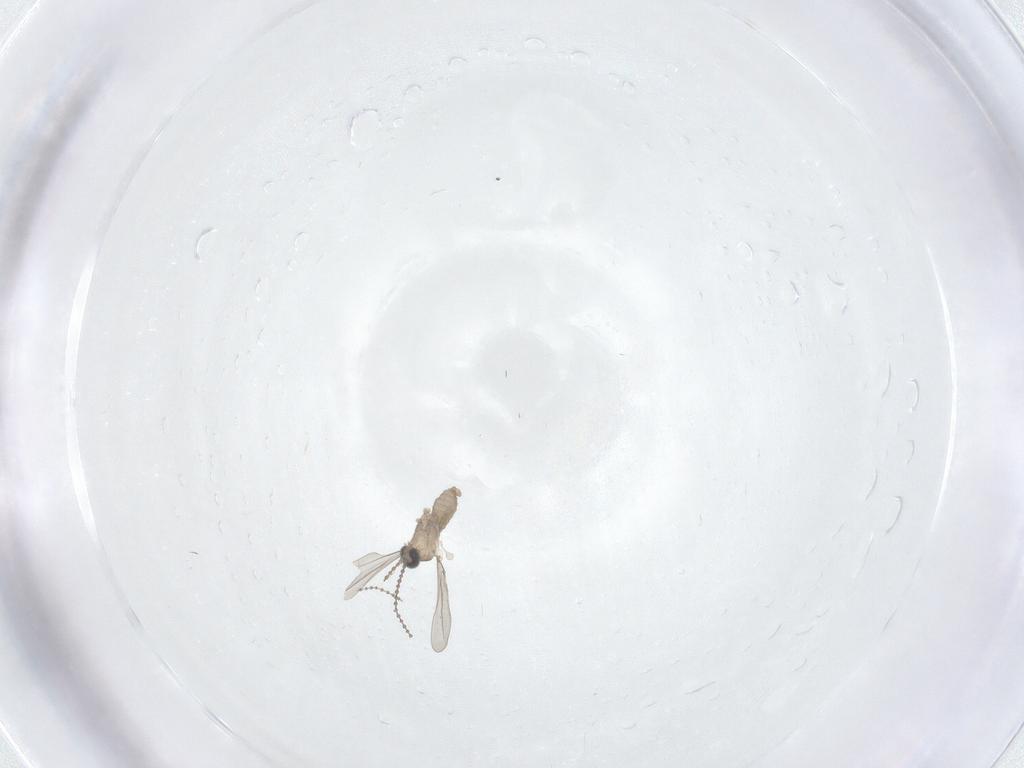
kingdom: Animalia
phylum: Arthropoda
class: Insecta
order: Diptera
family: Cecidomyiidae
